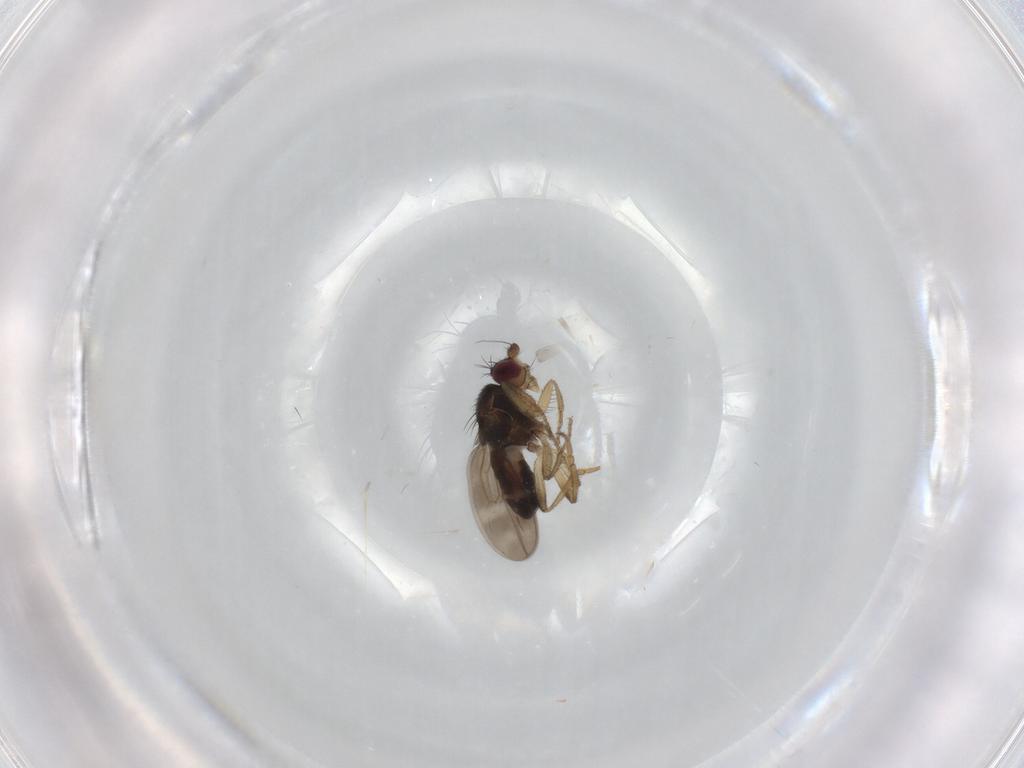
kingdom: Animalia
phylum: Arthropoda
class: Insecta
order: Diptera
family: Sphaeroceridae
